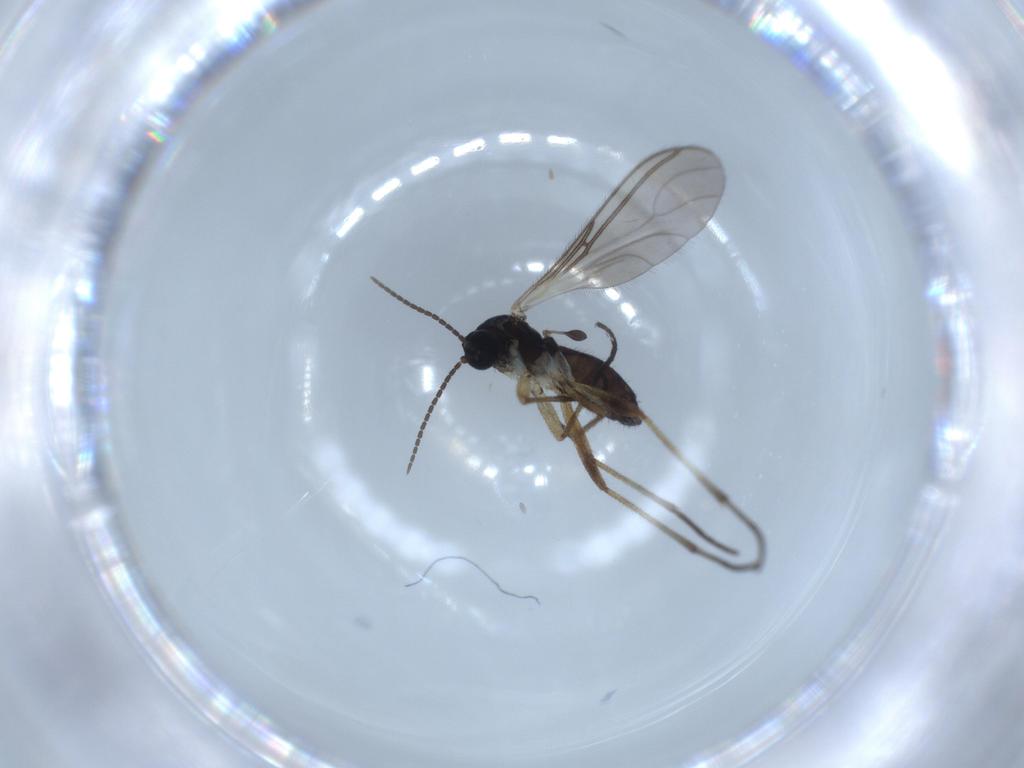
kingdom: Animalia
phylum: Arthropoda
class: Insecta
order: Diptera
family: Sciaridae
